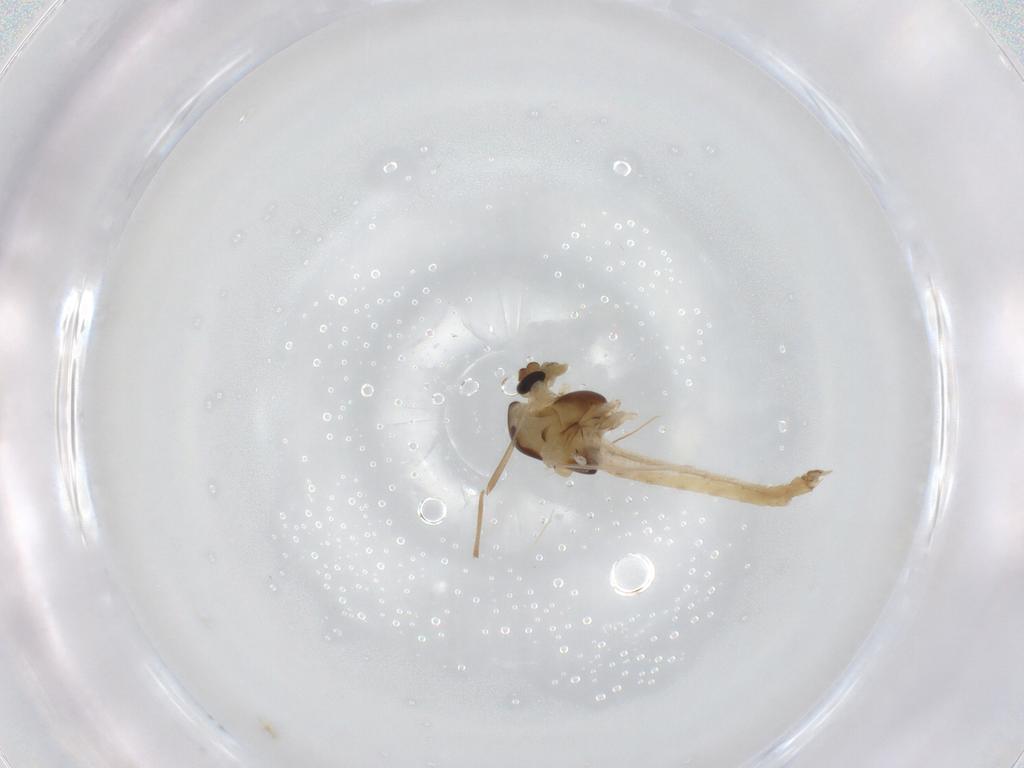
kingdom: Animalia
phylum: Arthropoda
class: Insecta
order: Diptera
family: Chironomidae
